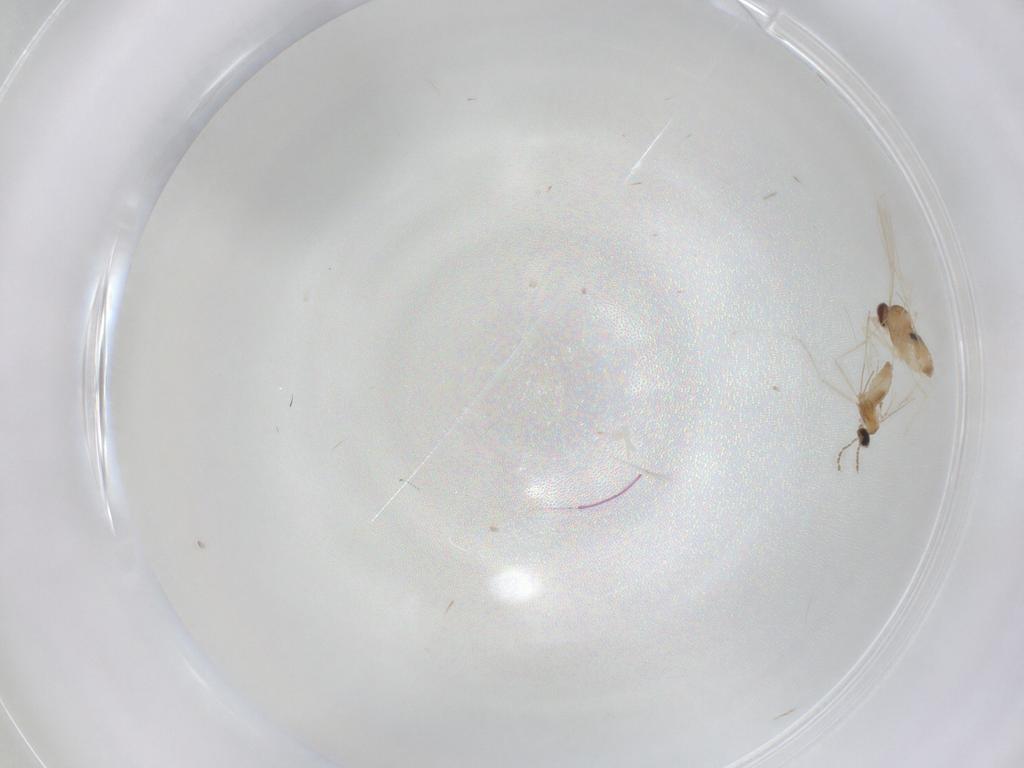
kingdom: Animalia
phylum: Arthropoda
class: Insecta
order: Diptera
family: Cecidomyiidae
